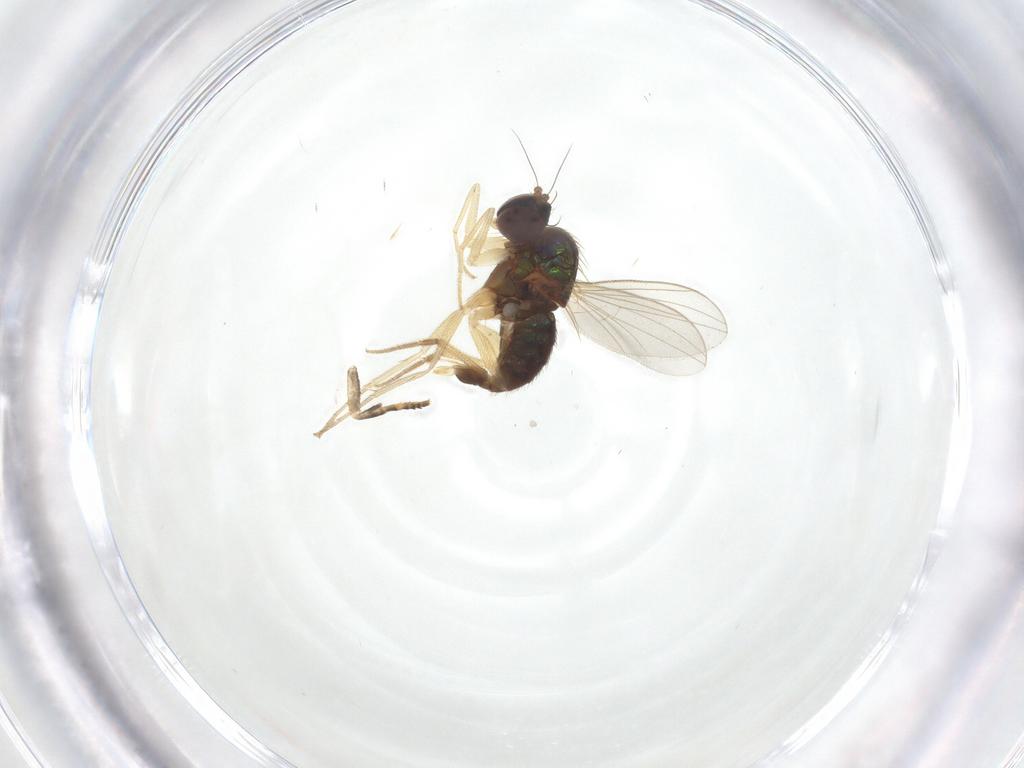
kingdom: Animalia
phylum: Arthropoda
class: Insecta
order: Diptera
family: Dolichopodidae
